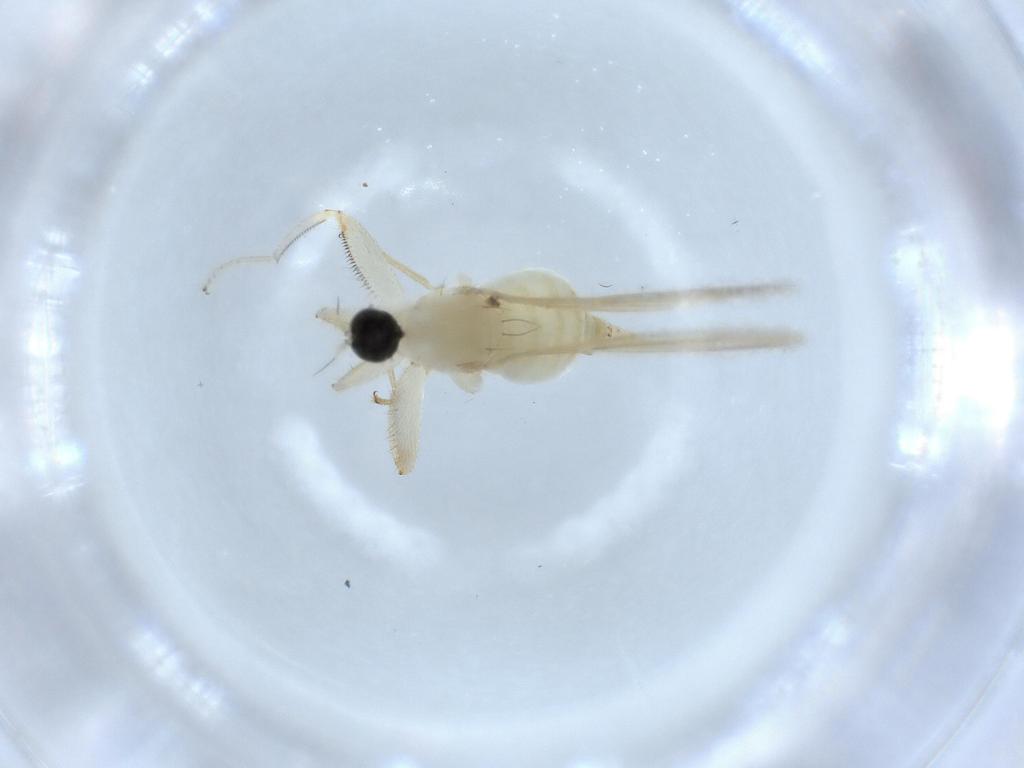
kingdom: Animalia
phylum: Arthropoda
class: Insecta
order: Diptera
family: Hybotidae
